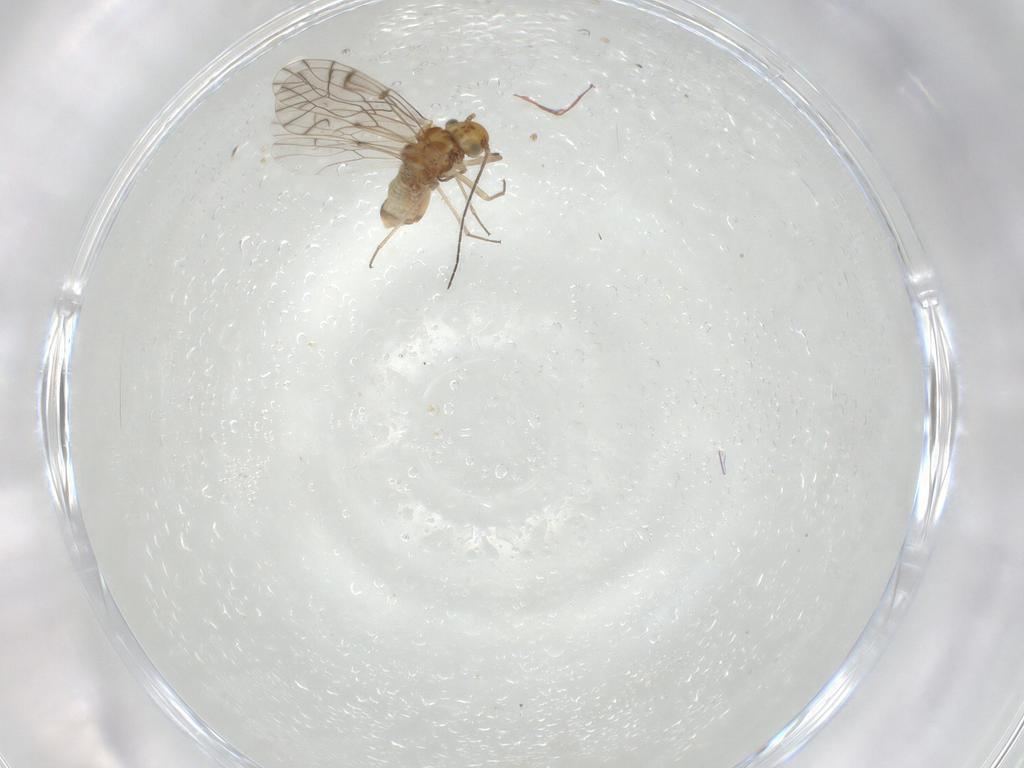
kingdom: Animalia
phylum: Arthropoda
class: Insecta
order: Psocodea
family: Lachesillidae
